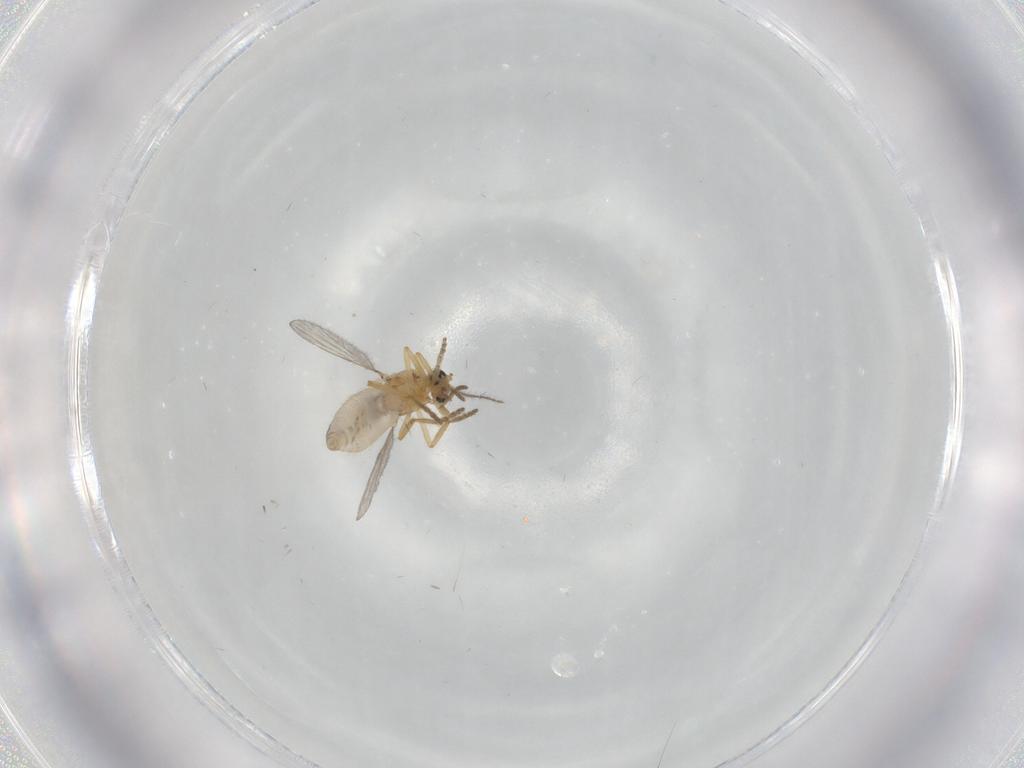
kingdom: Animalia
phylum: Arthropoda
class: Insecta
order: Diptera
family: Ceratopogonidae
